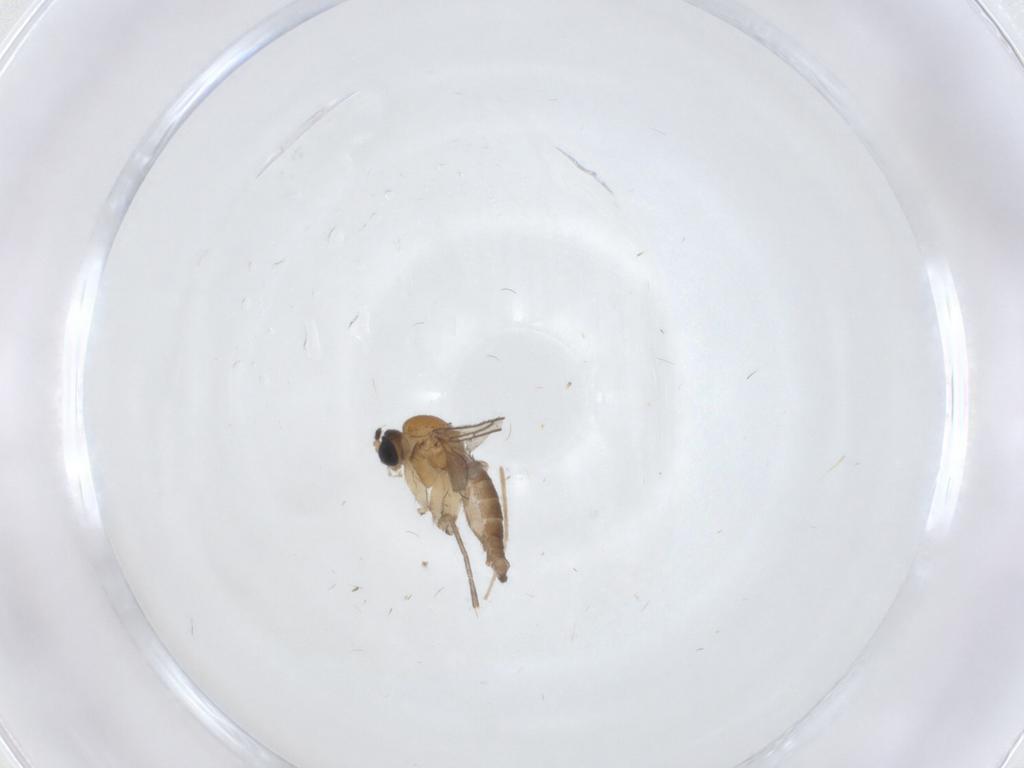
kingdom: Animalia
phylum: Arthropoda
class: Insecta
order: Diptera
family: Sciaridae
